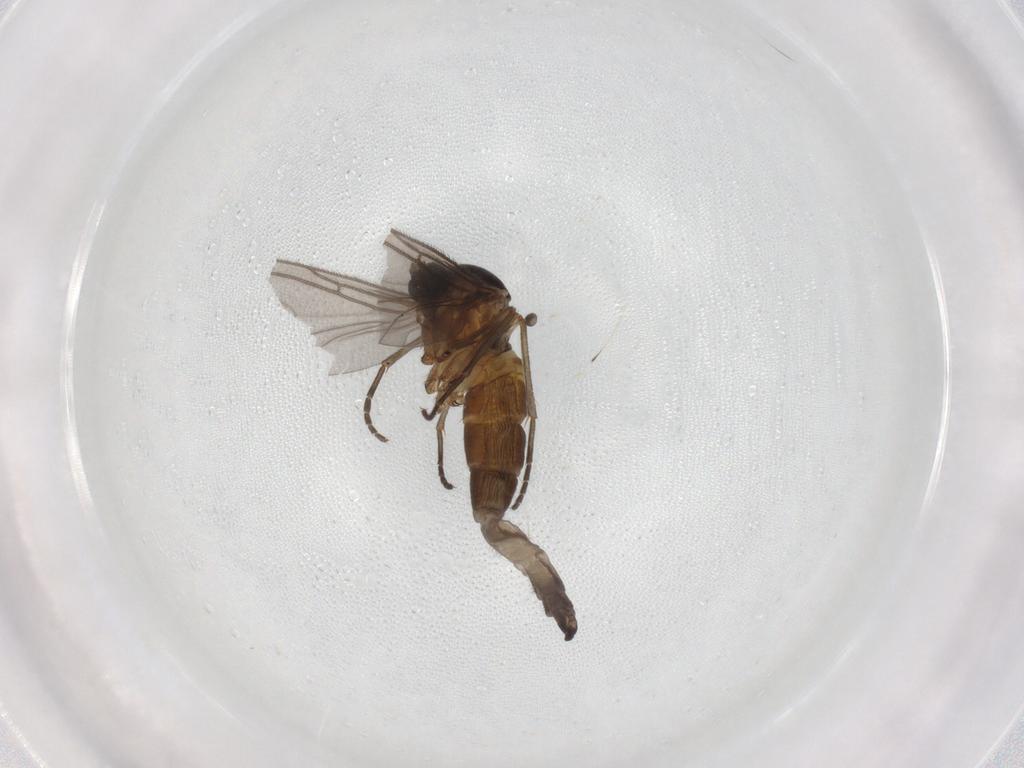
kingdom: Animalia
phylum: Arthropoda
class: Insecta
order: Diptera
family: Sciaridae
